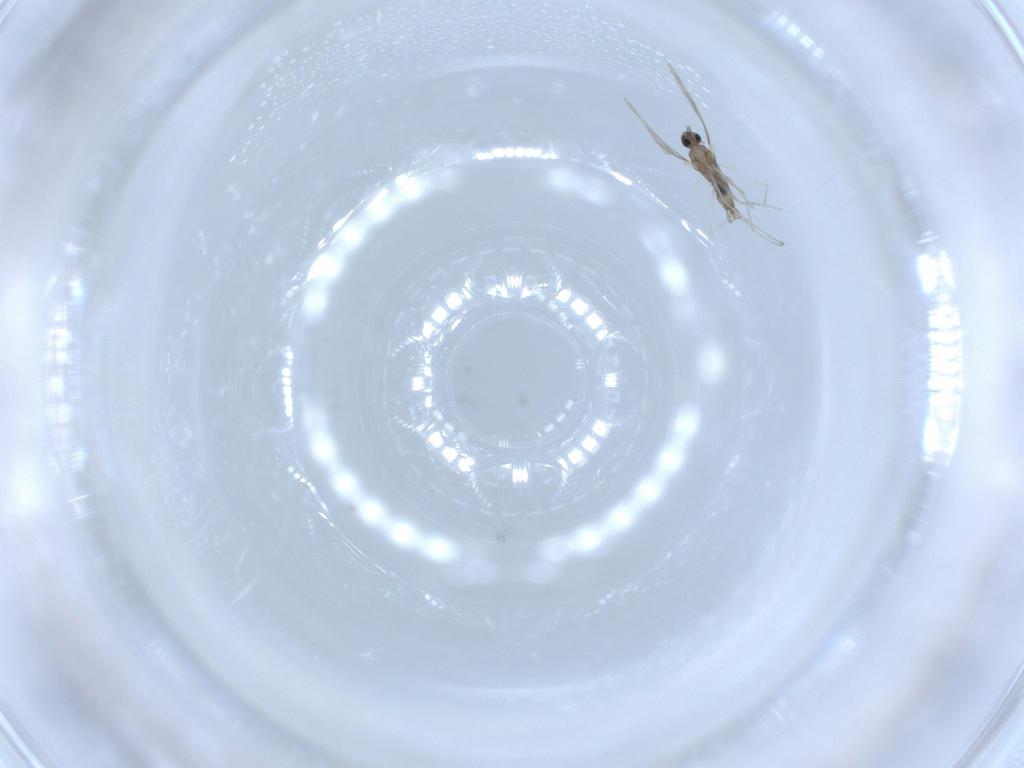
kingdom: Animalia
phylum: Arthropoda
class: Insecta
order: Diptera
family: Cecidomyiidae
